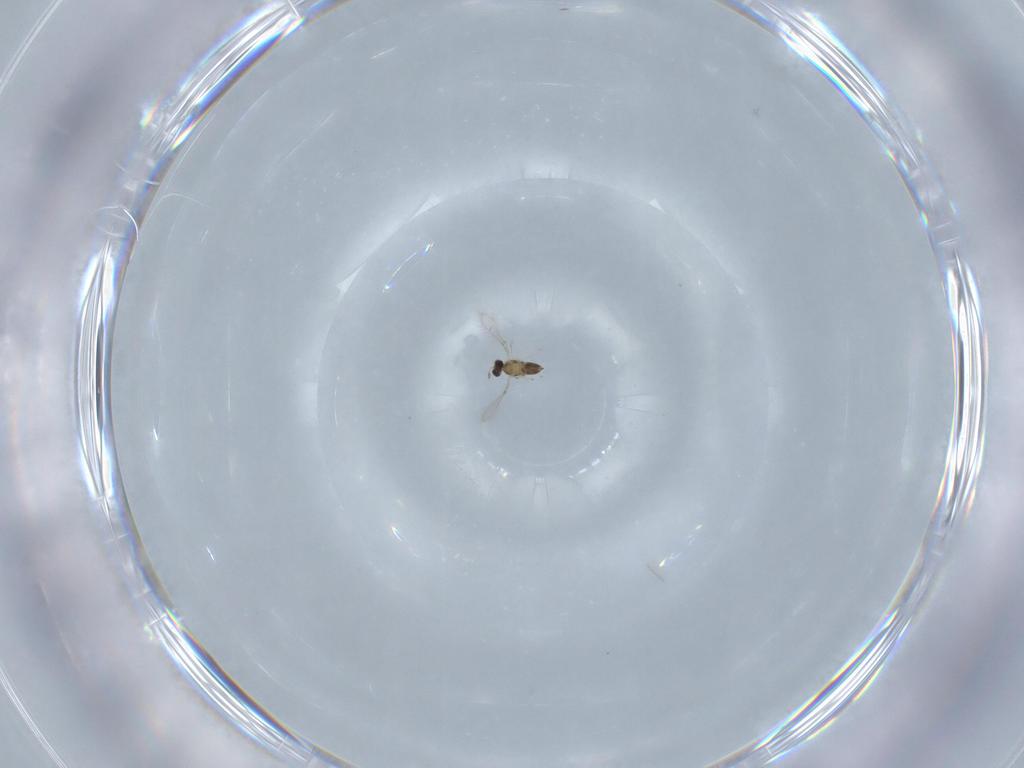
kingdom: Animalia
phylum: Arthropoda
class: Insecta
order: Hymenoptera
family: Mymaridae
